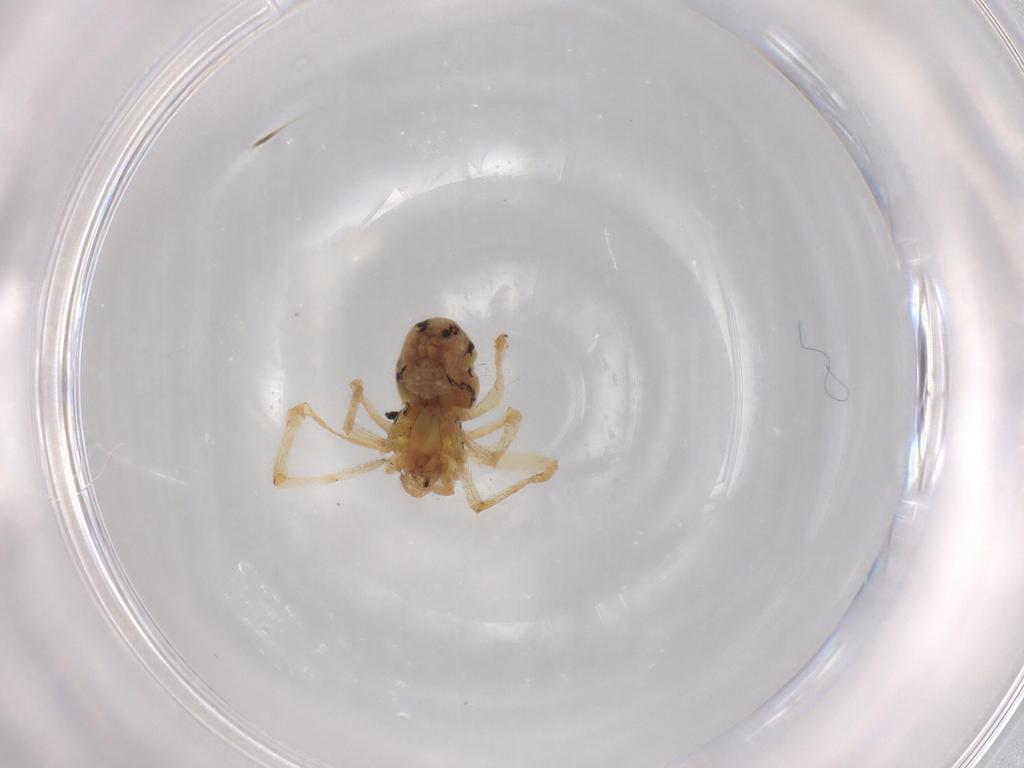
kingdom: Animalia
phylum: Arthropoda
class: Arachnida
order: Araneae
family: Theridiidae
